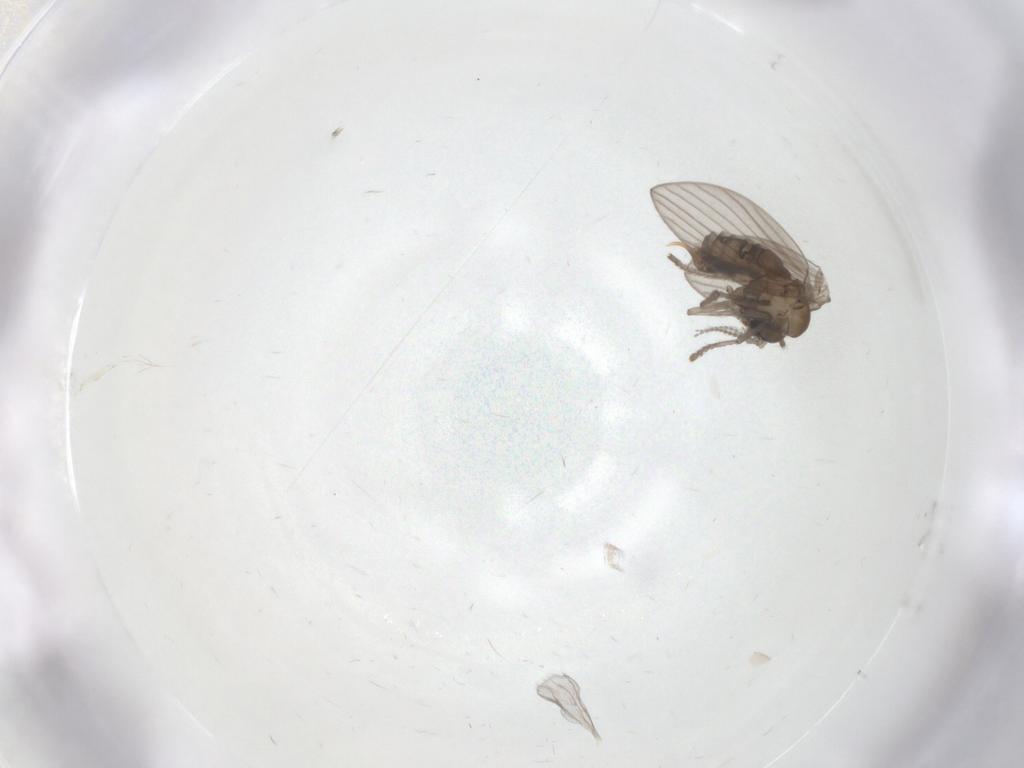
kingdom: Animalia
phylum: Arthropoda
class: Insecta
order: Diptera
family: Psychodidae
